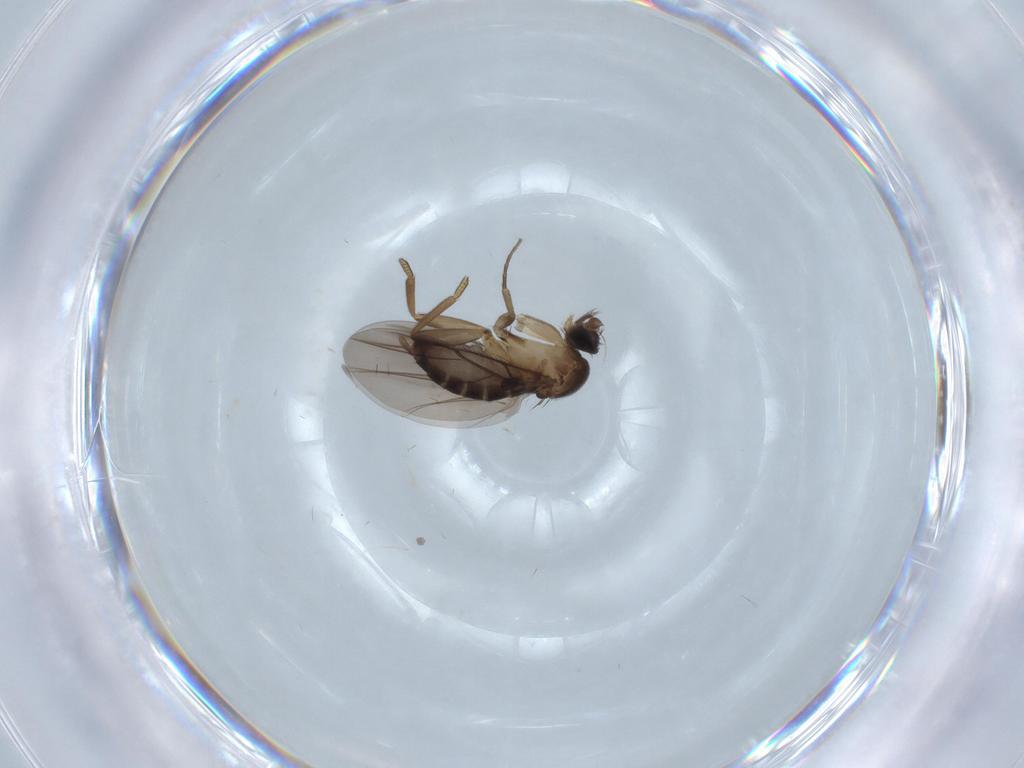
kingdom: Animalia
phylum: Arthropoda
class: Insecta
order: Diptera
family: Phoridae
